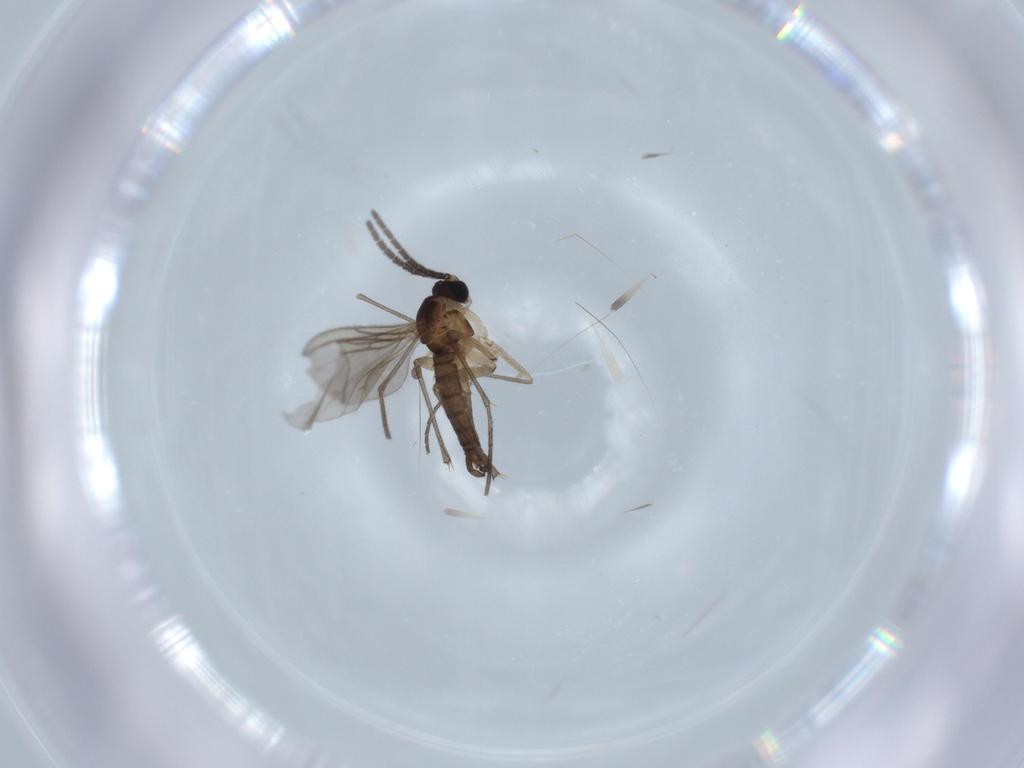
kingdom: Animalia
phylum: Arthropoda
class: Insecta
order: Diptera
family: Sciaridae
